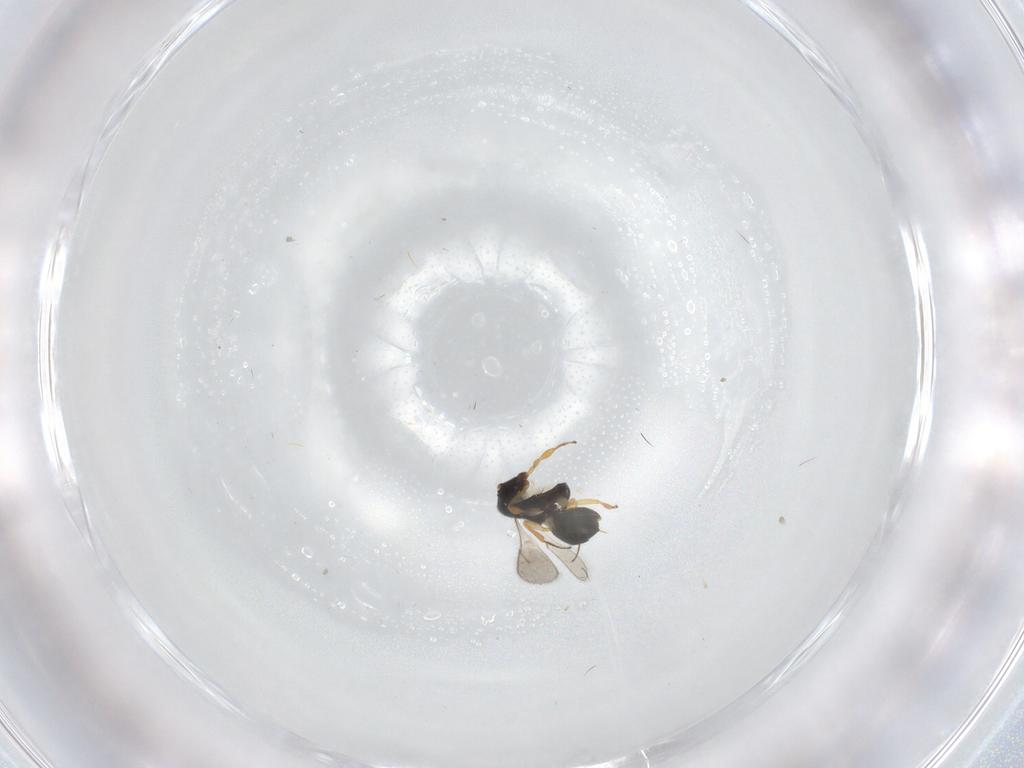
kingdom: Animalia
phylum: Arthropoda
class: Insecta
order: Hymenoptera
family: Scelionidae
